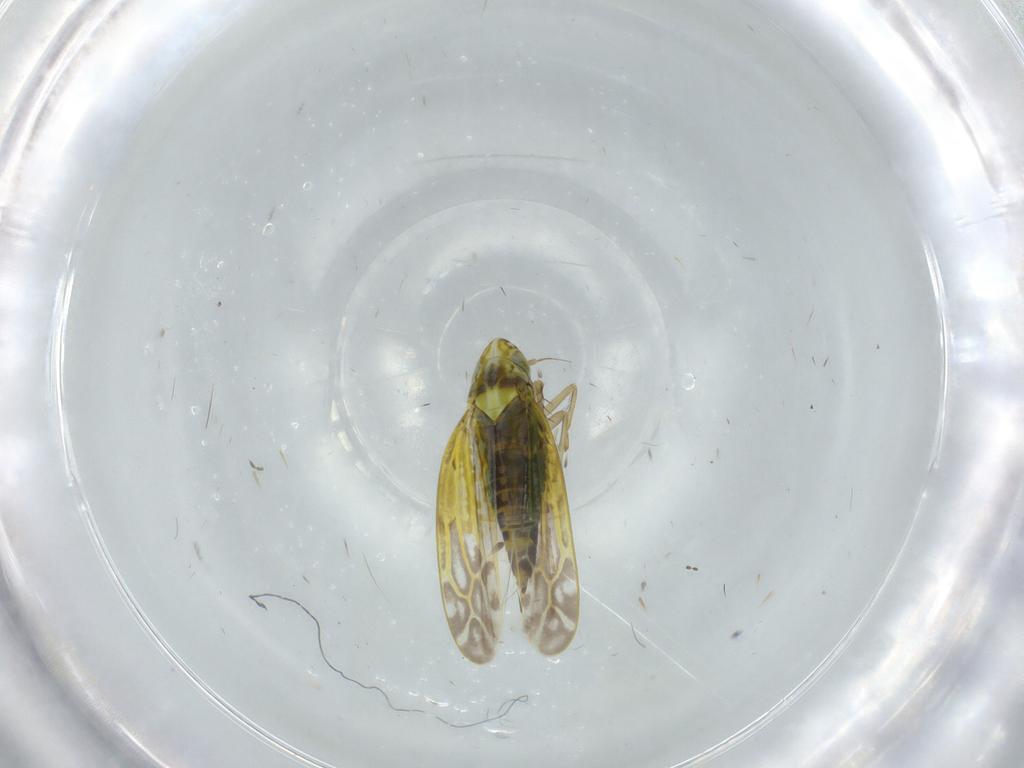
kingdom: Animalia
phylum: Arthropoda
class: Insecta
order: Hemiptera
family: Cicadellidae
